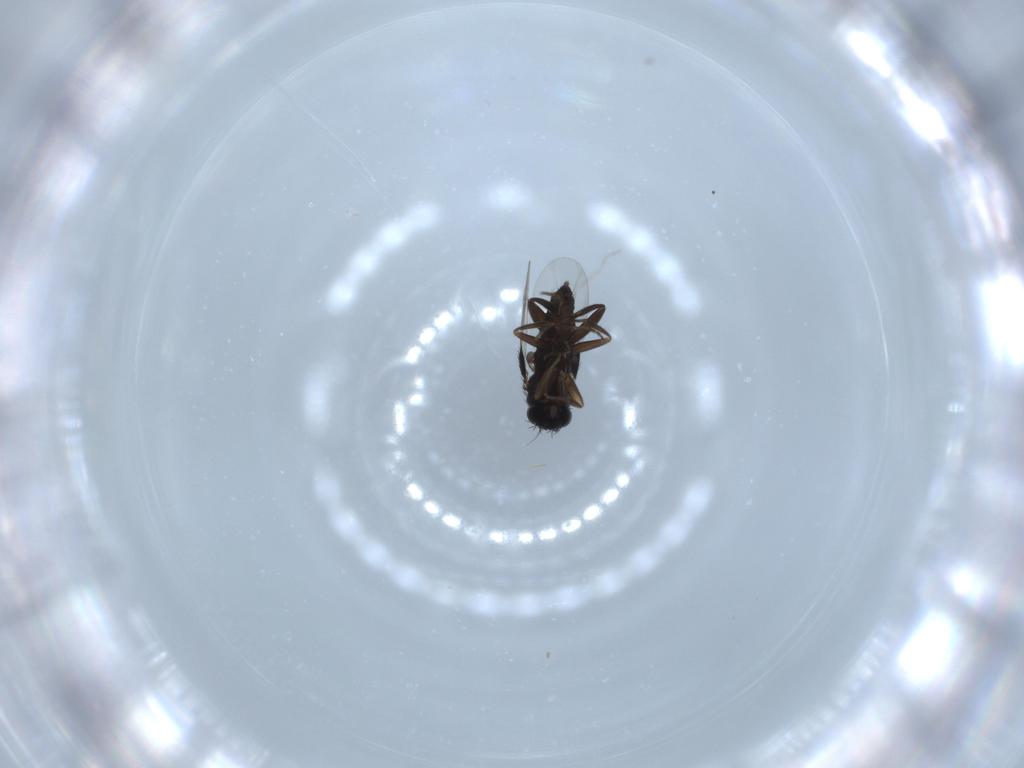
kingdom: Animalia
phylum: Arthropoda
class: Insecta
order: Diptera
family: Phoridae
